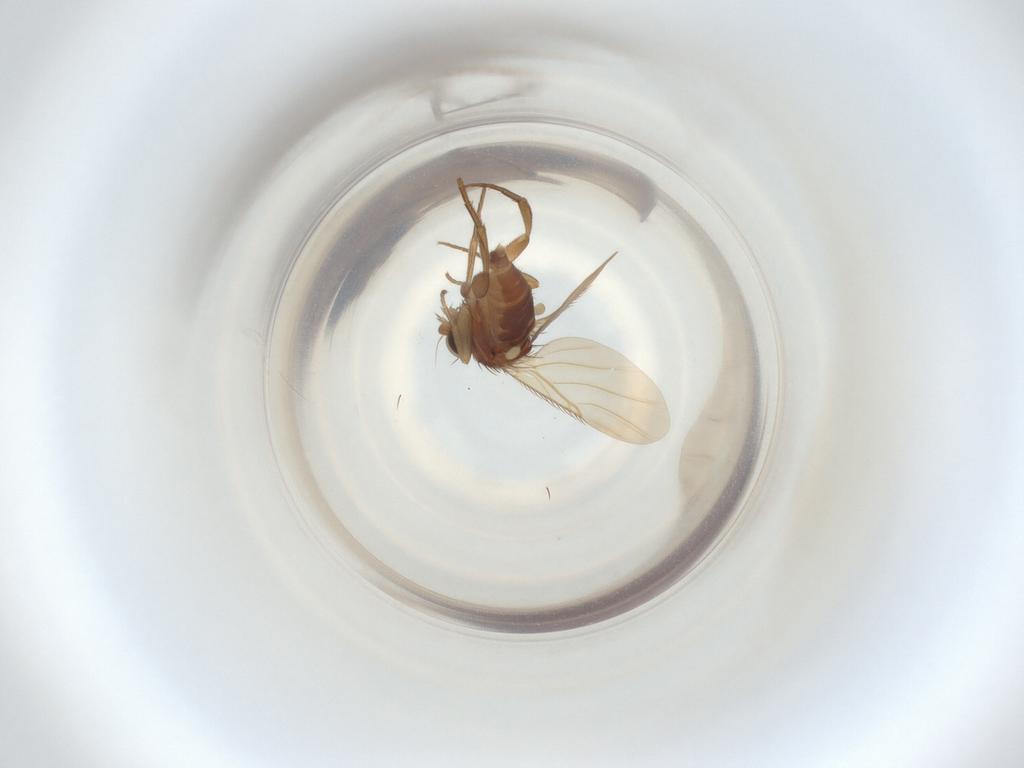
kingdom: Animalia
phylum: Arthropoda
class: Insecta
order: Diptera
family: Phoridae
